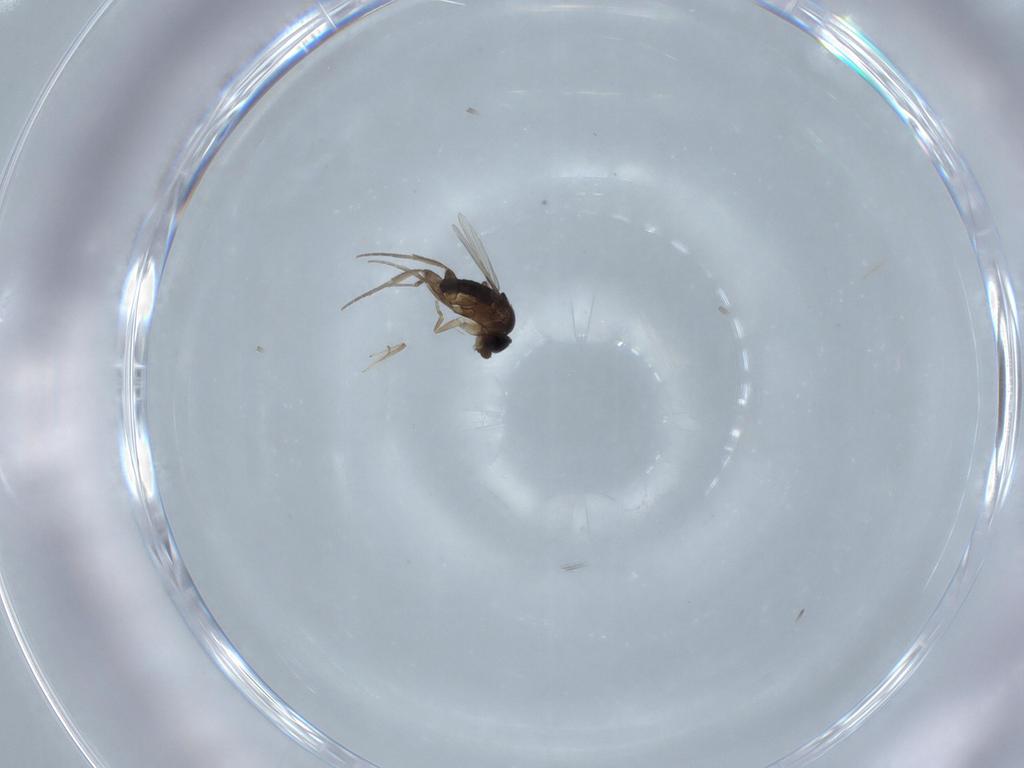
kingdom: Animalia
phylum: Arthropoda
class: Insecta
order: Diptera
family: Phoridae
